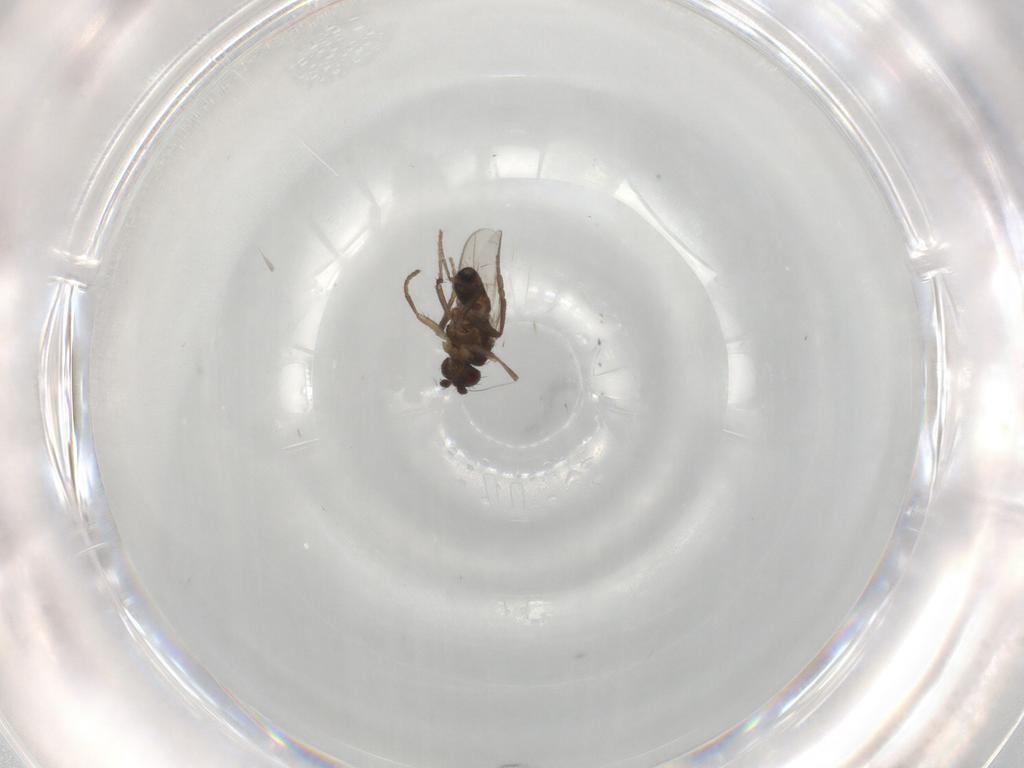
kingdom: Animalia
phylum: Arthropoda
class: Insecta
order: Diptera
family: Sphaeroceridae
